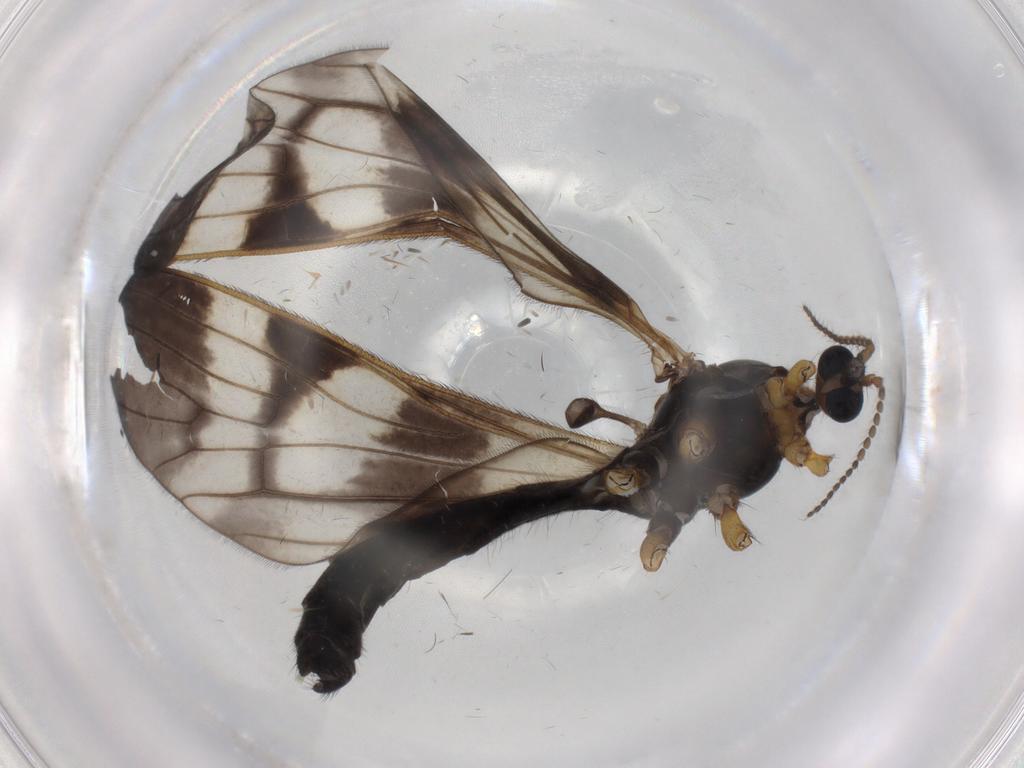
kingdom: Animalia
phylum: Arthropoda
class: Insecta
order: Diptera
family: Limoniidae
